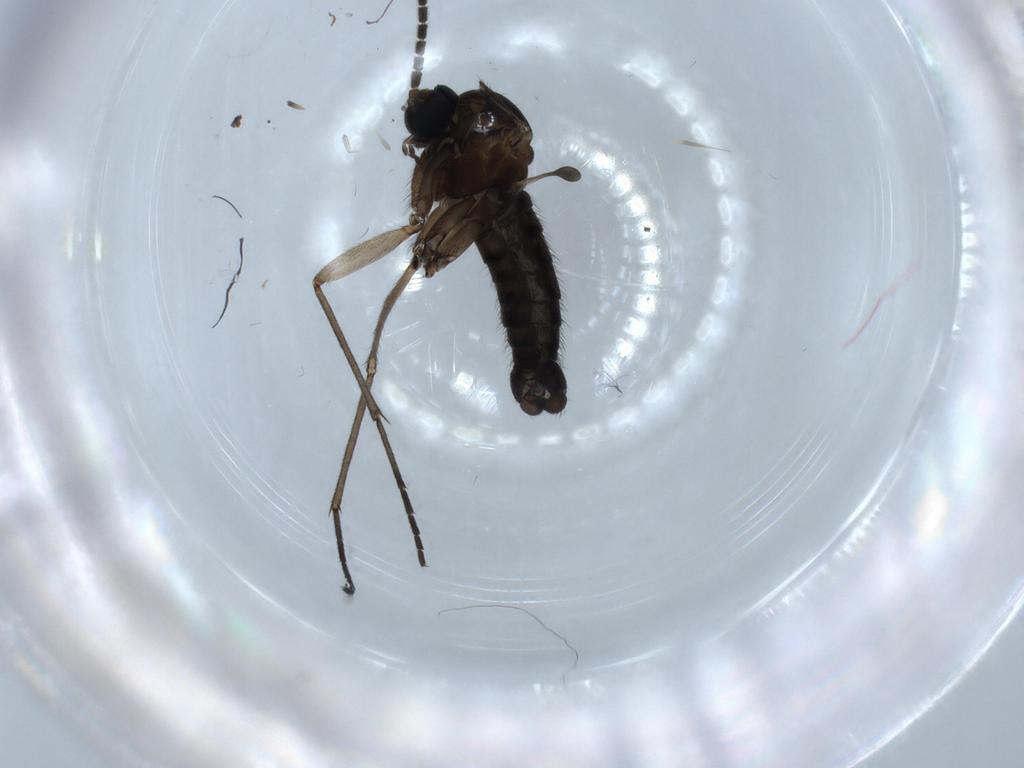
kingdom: Animalia
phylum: Arthropoda
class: Insecta
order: Diptera
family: Sciaridae
